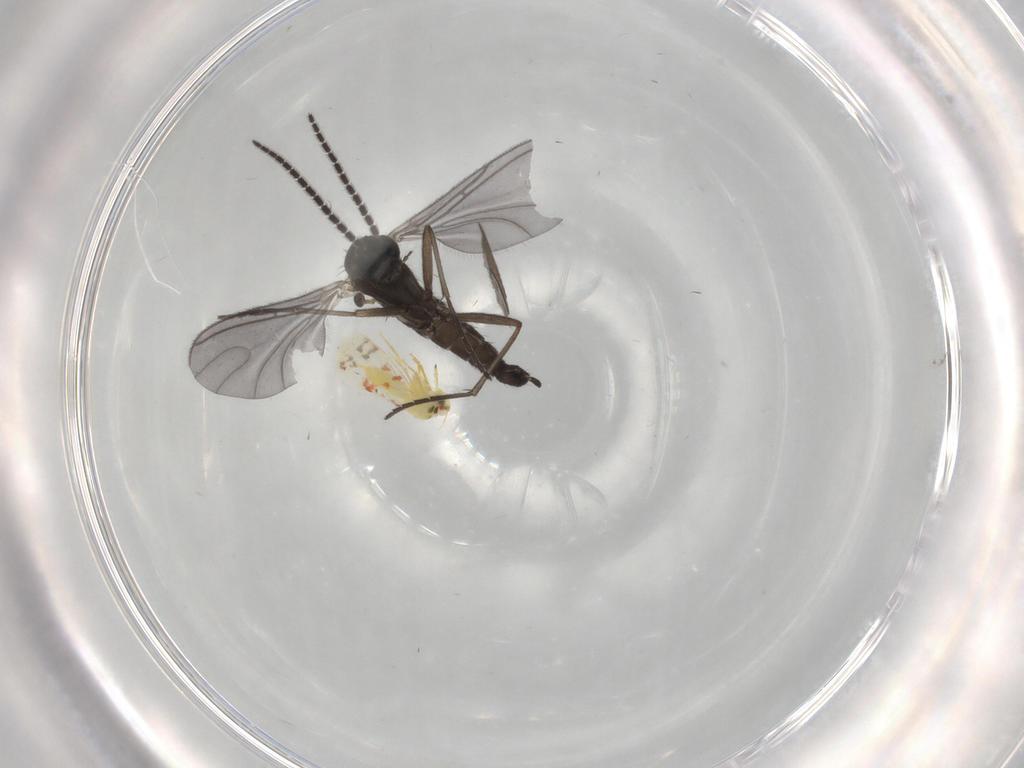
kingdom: Animalia
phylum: Arthropoda
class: Insecta
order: Diptera
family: Sciaridae
